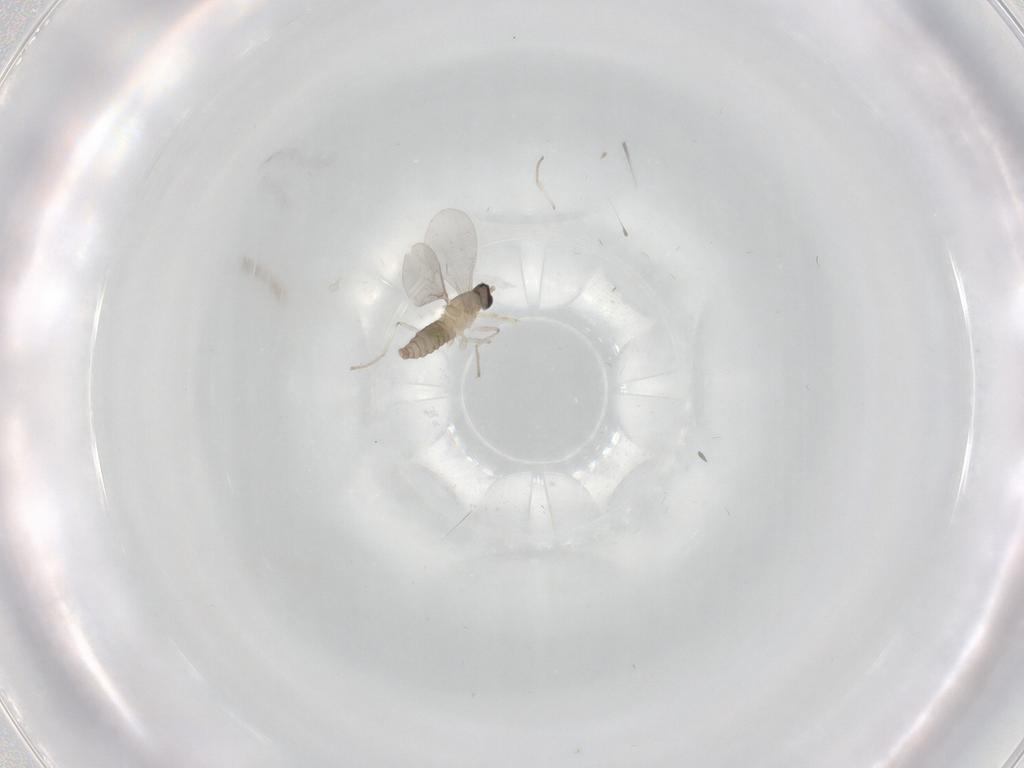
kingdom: Animalia
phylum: Arthropoda
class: Insecta
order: Diptera
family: Cecidomyiidae
